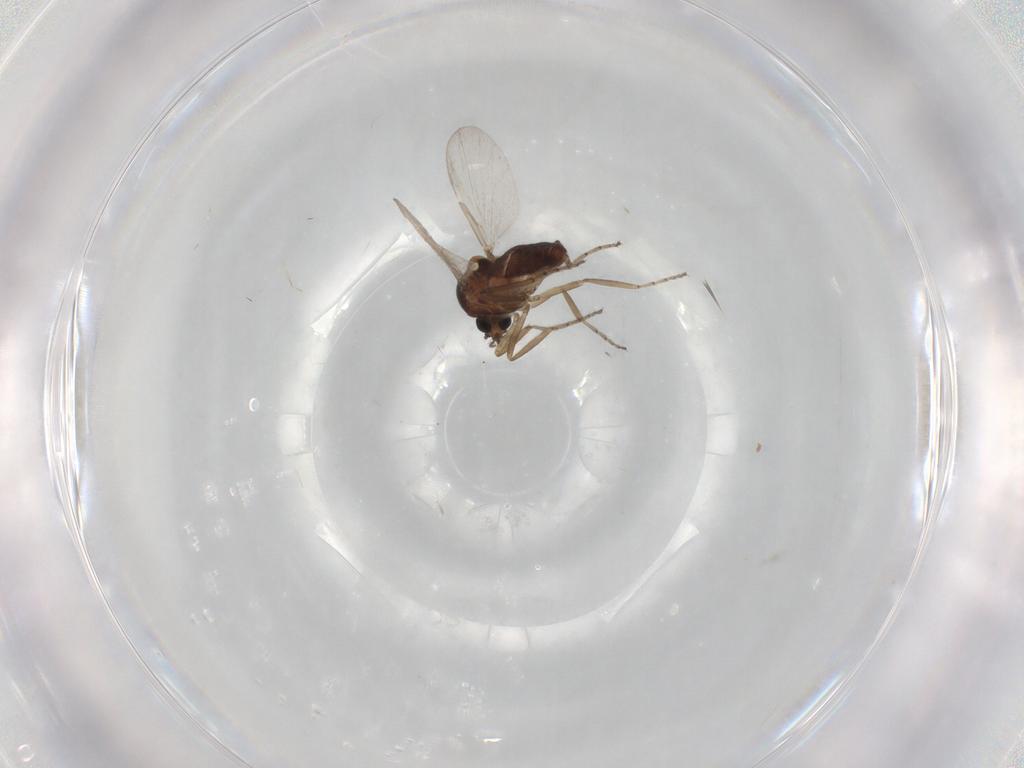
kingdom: Animalia
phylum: Arthropoda
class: Insecta
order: Diptera
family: Ceratopogonidae
